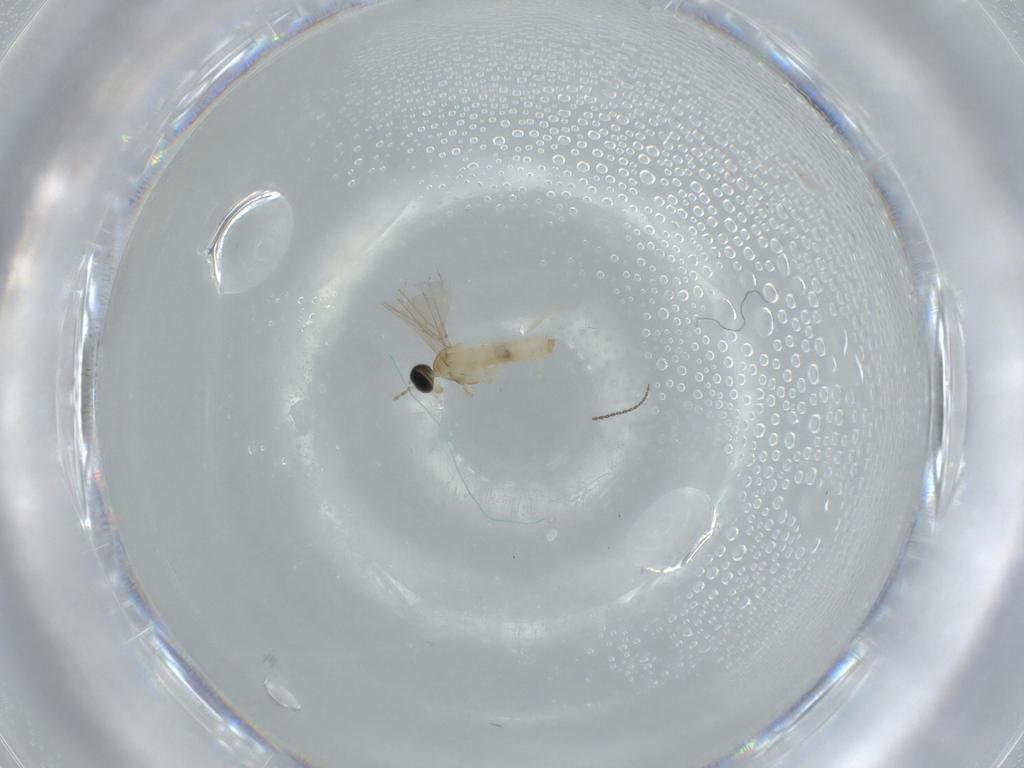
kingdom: Animalia
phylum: Arthropoda
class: Insecta
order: Diptera
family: Cecidomyiidae
